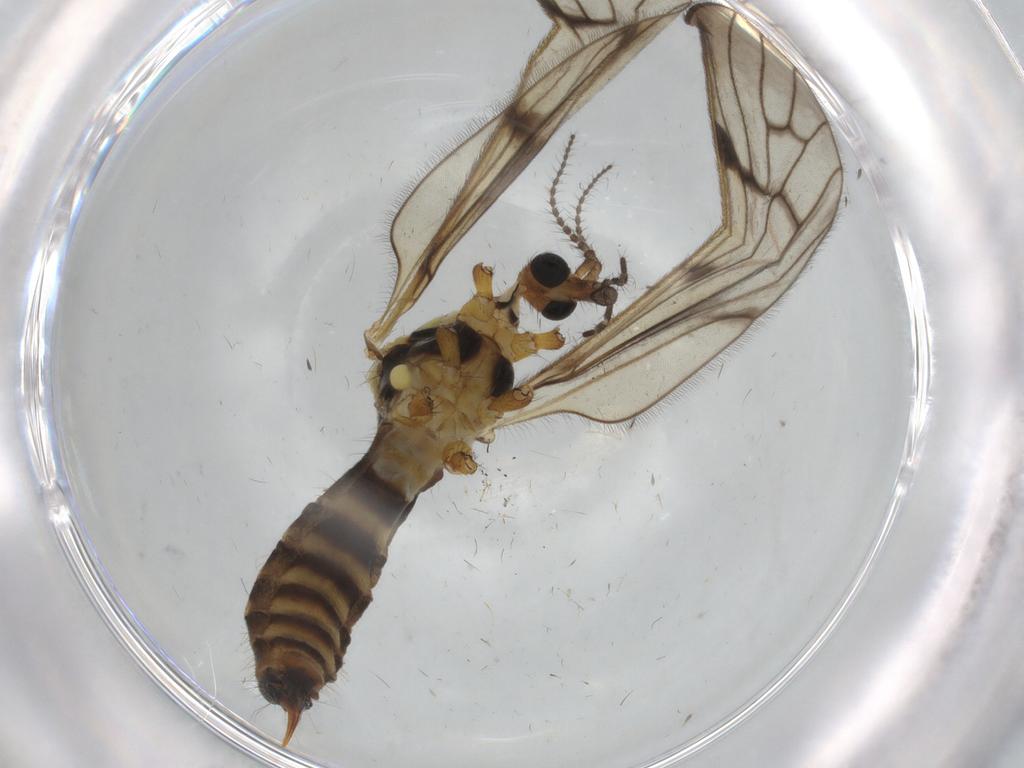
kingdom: Animalia
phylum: Arthropoda
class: Insecta
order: Diptera
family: Limoniidae
